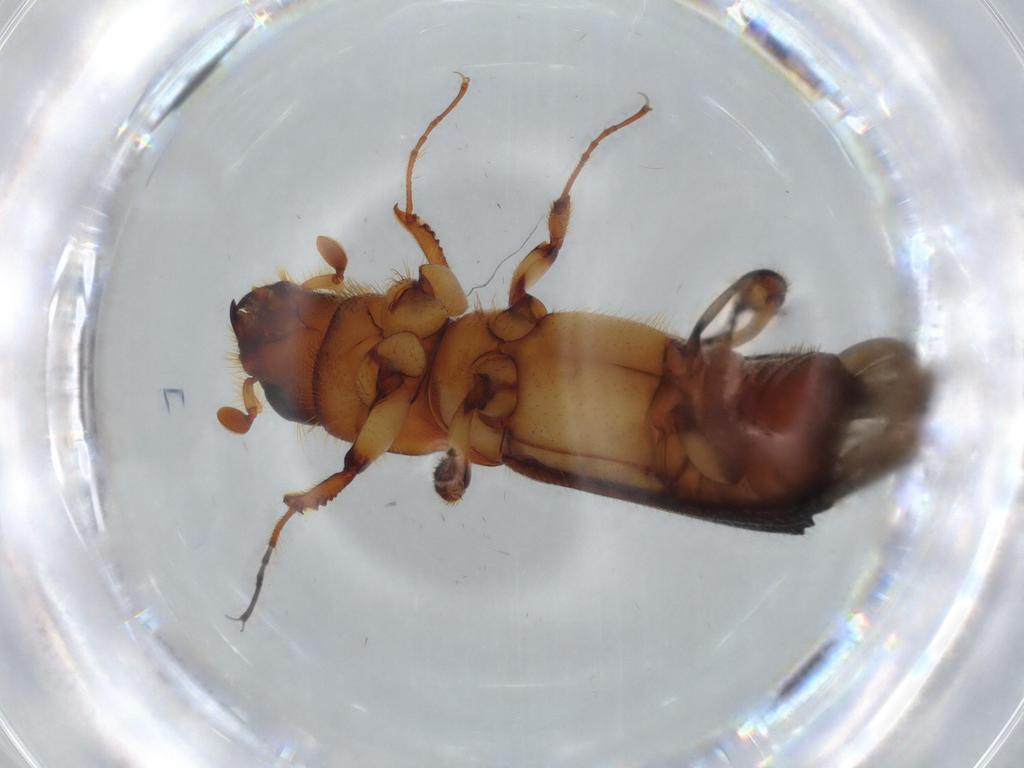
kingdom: Animalia
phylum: Arthropoda
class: Insecta
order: Coleoptera
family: Curculionidae
